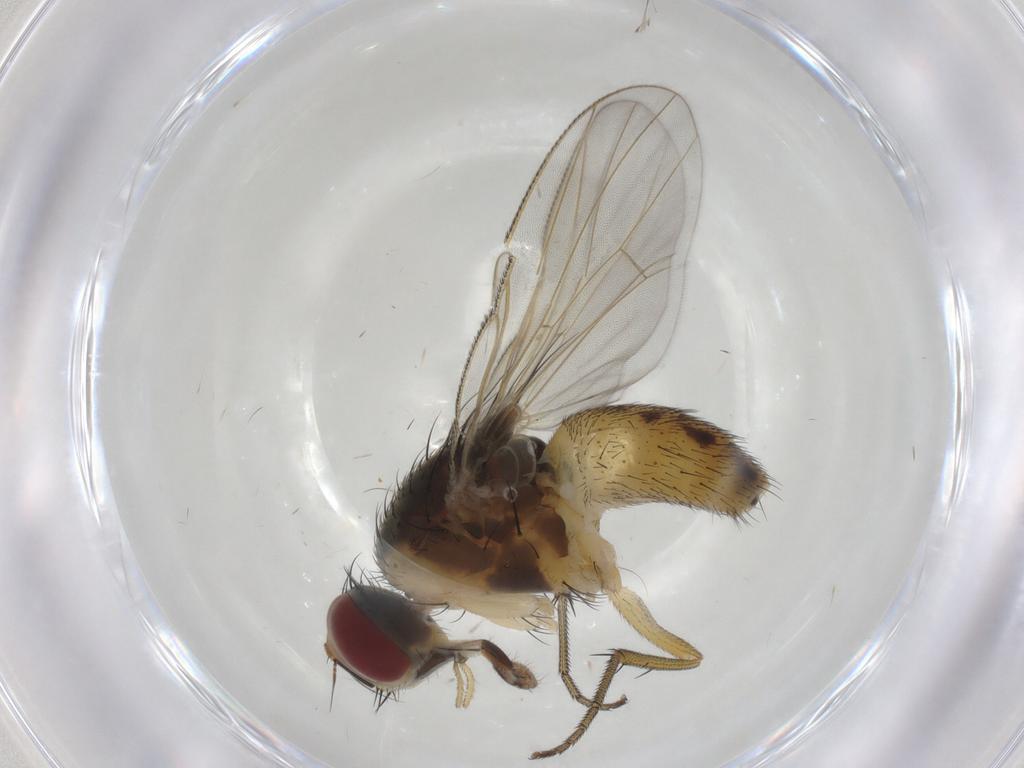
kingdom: Animalia
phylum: Arthropoda
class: Insecta
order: Diptera
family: Muscidae
